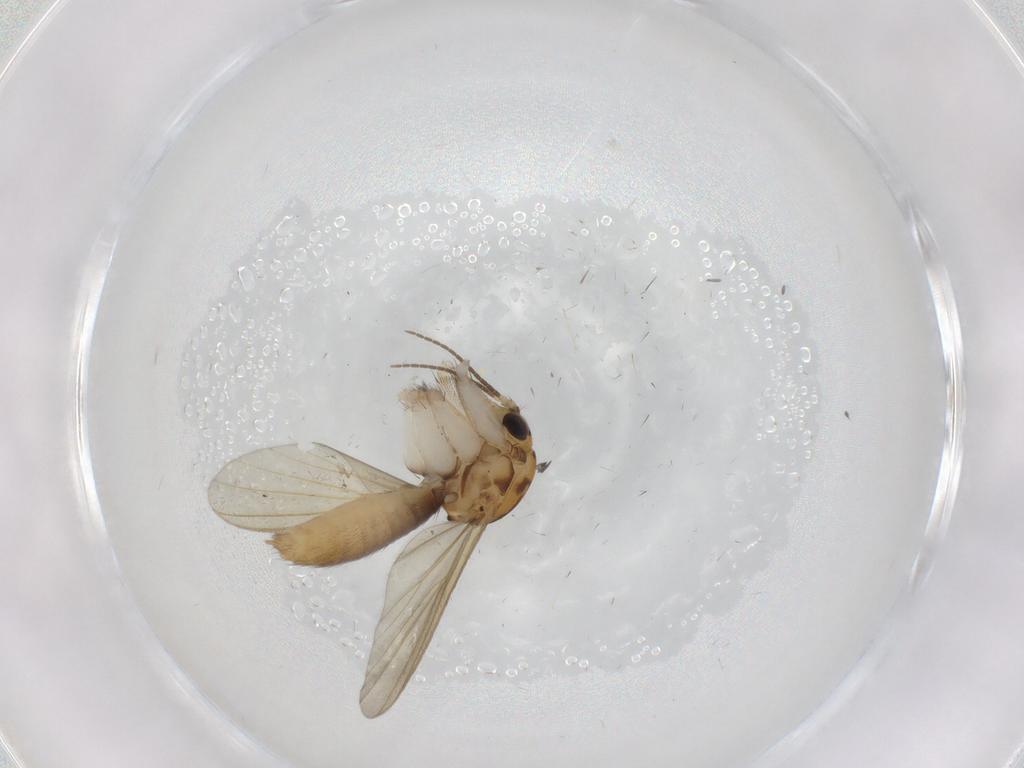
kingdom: Animalia
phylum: Arthropoda
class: Insecta
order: Diptera
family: Mycetophilidae
